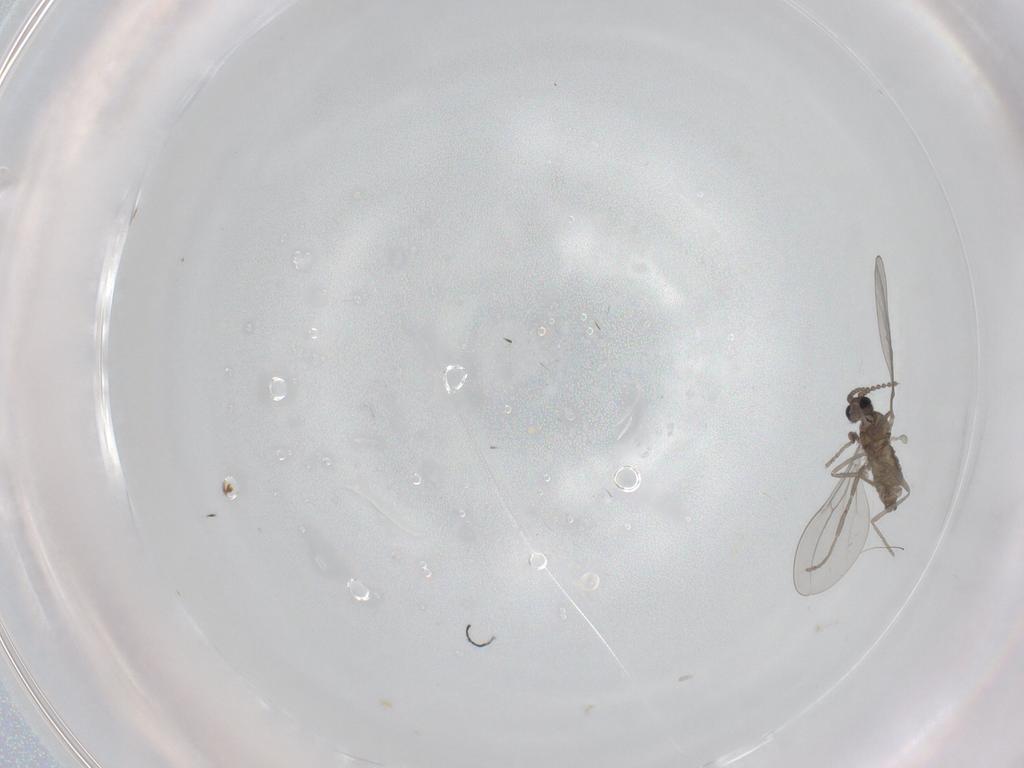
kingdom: Animalia
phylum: Arthropoda
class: Insecta
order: Diptera
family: Cecidomyiidae
